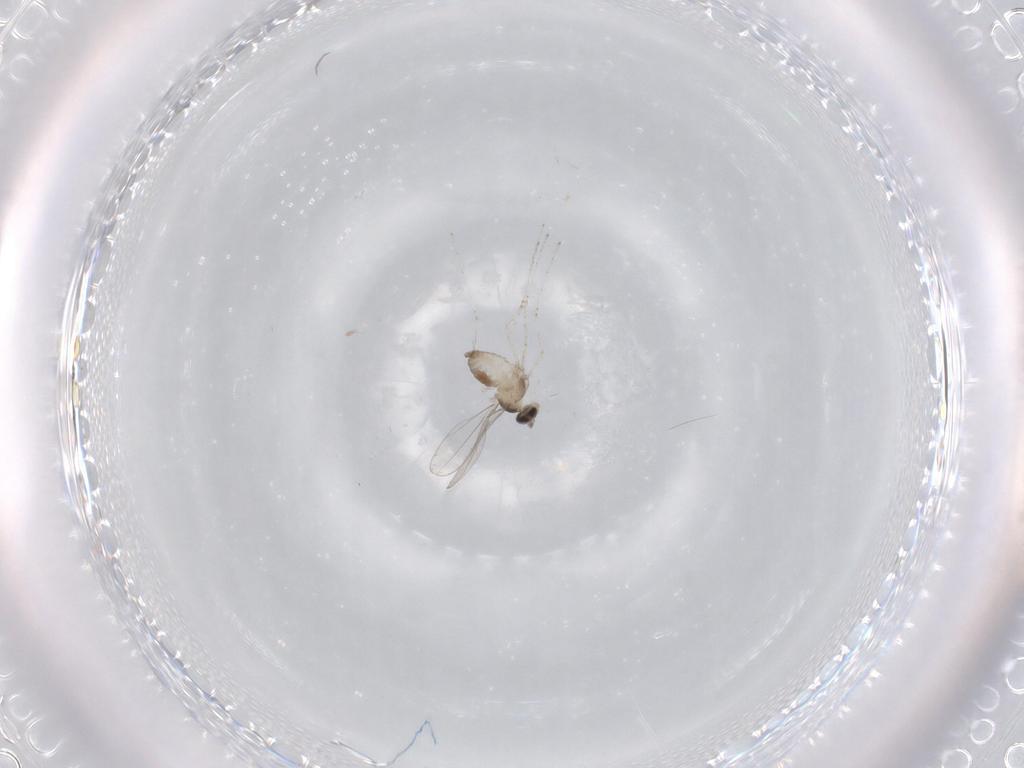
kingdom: Animalia
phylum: Arthropoda
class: Insecta
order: Diptera
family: Cecidomyiidae
